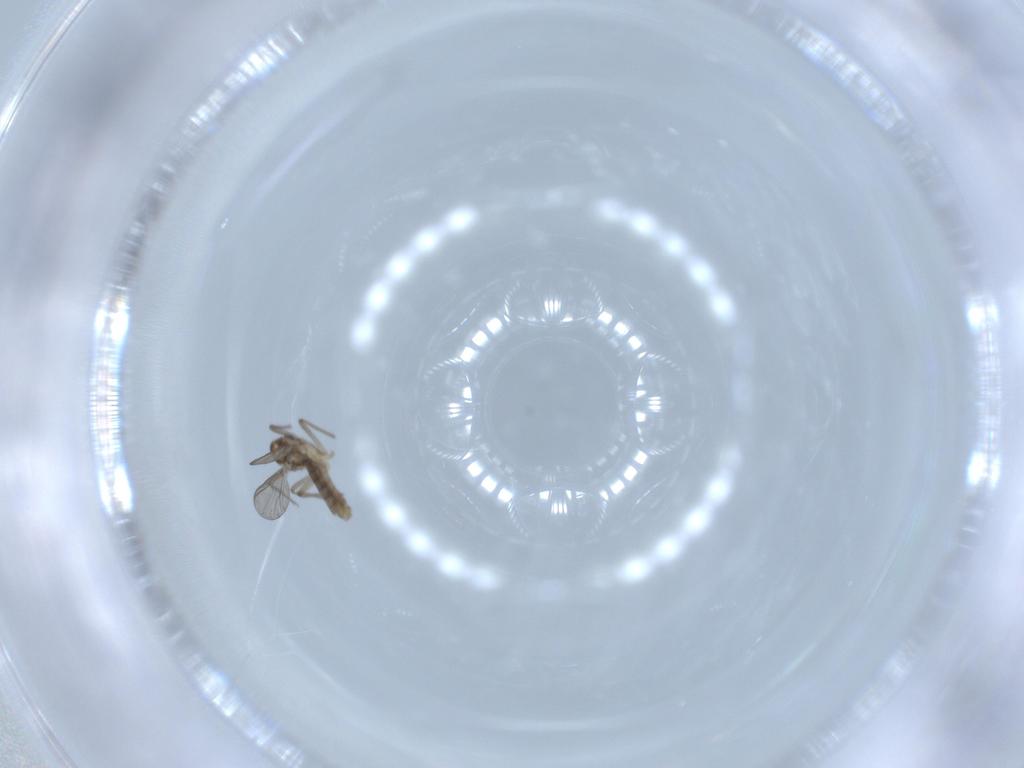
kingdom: Animalia
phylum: Arthropoda
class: Insecta
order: Diptera
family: Chironomidae
